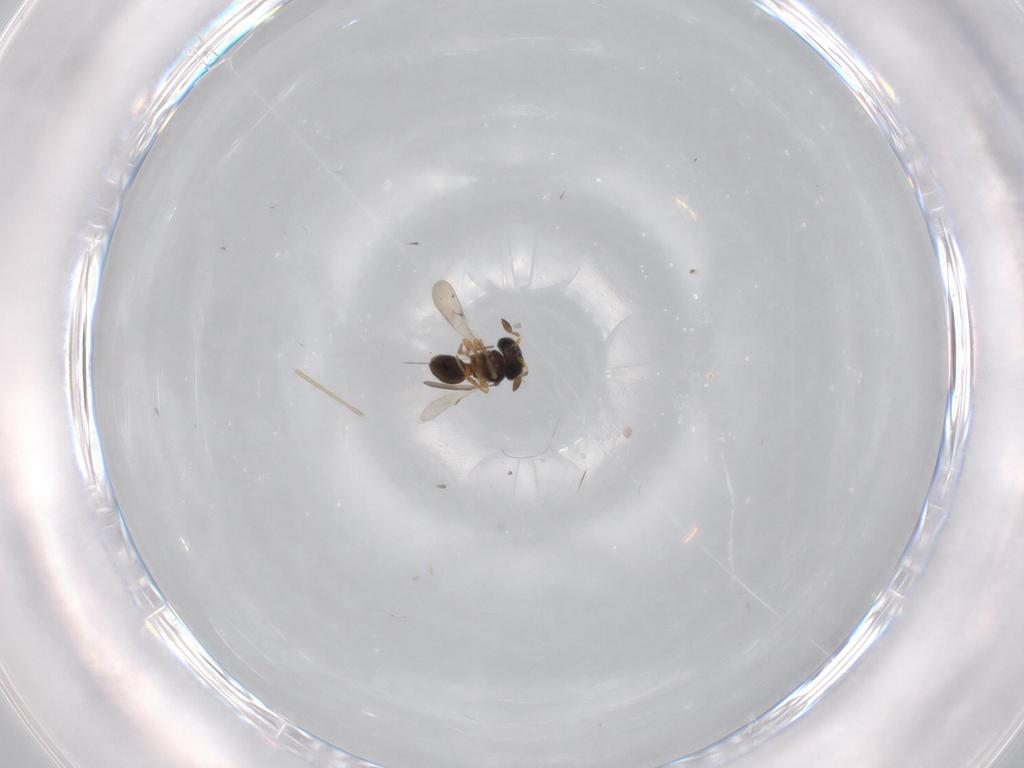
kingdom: Animalia
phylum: Arthropoda
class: Insecta
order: Hymenoptera
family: Scelionidae
